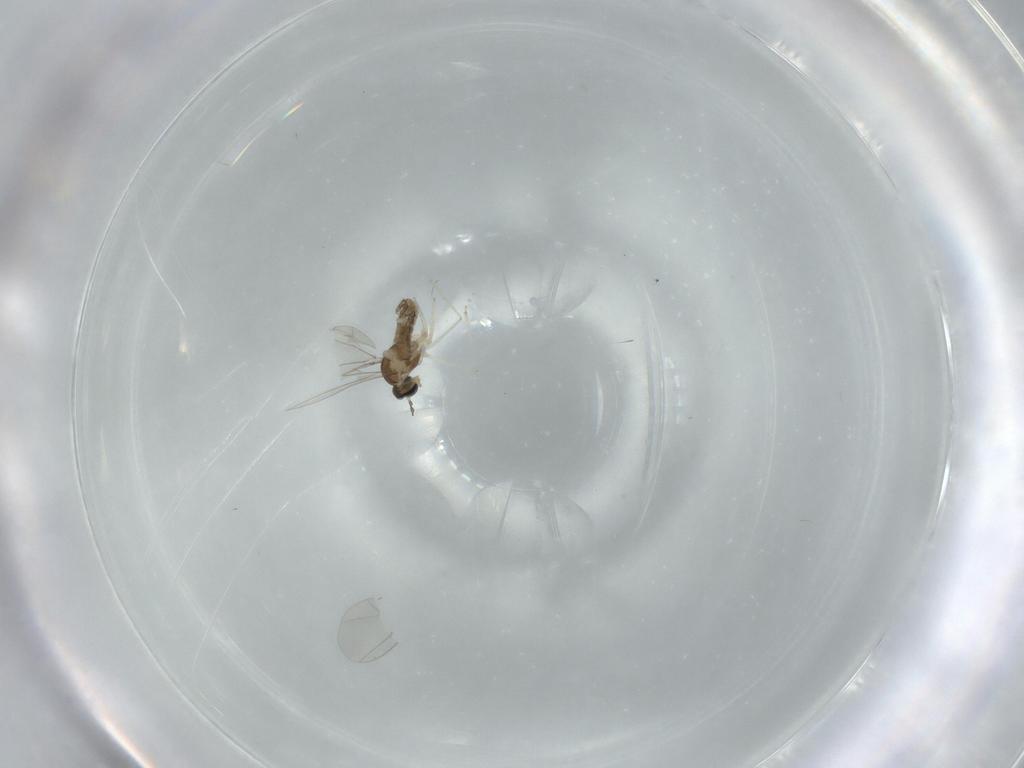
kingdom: Animalia
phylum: Arthropoda
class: Insecta
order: Diptera
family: Cecidomyiidae
